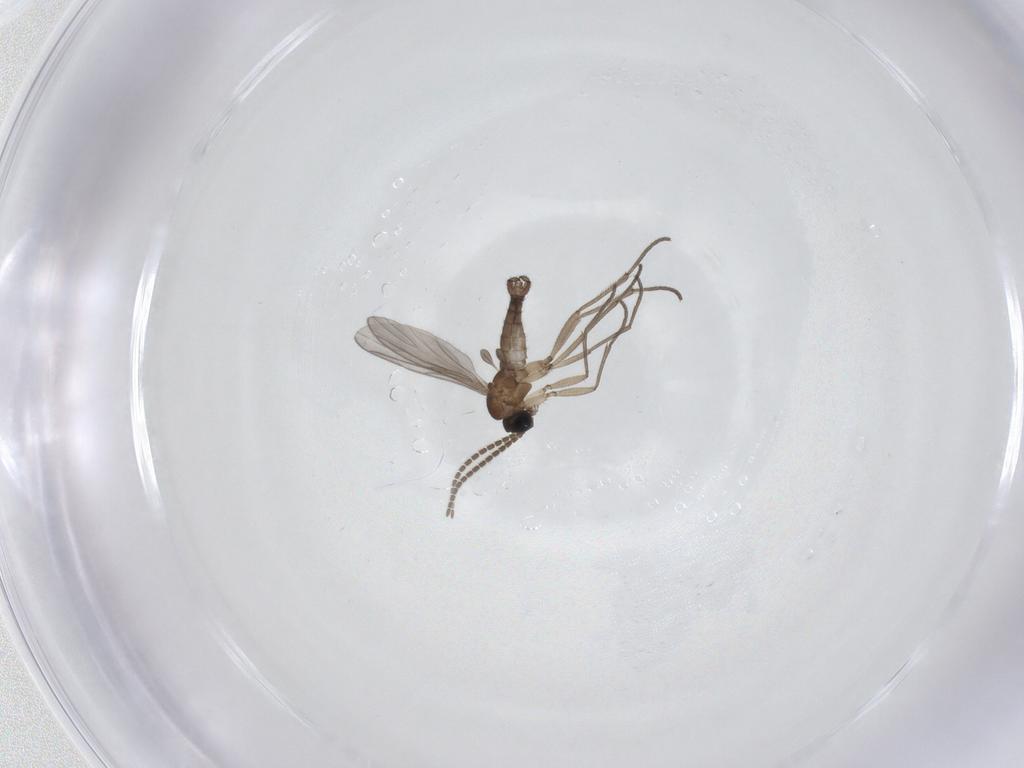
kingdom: Animalia
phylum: Arthropoda
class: Insecta
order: Diptera
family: Sciaridae
